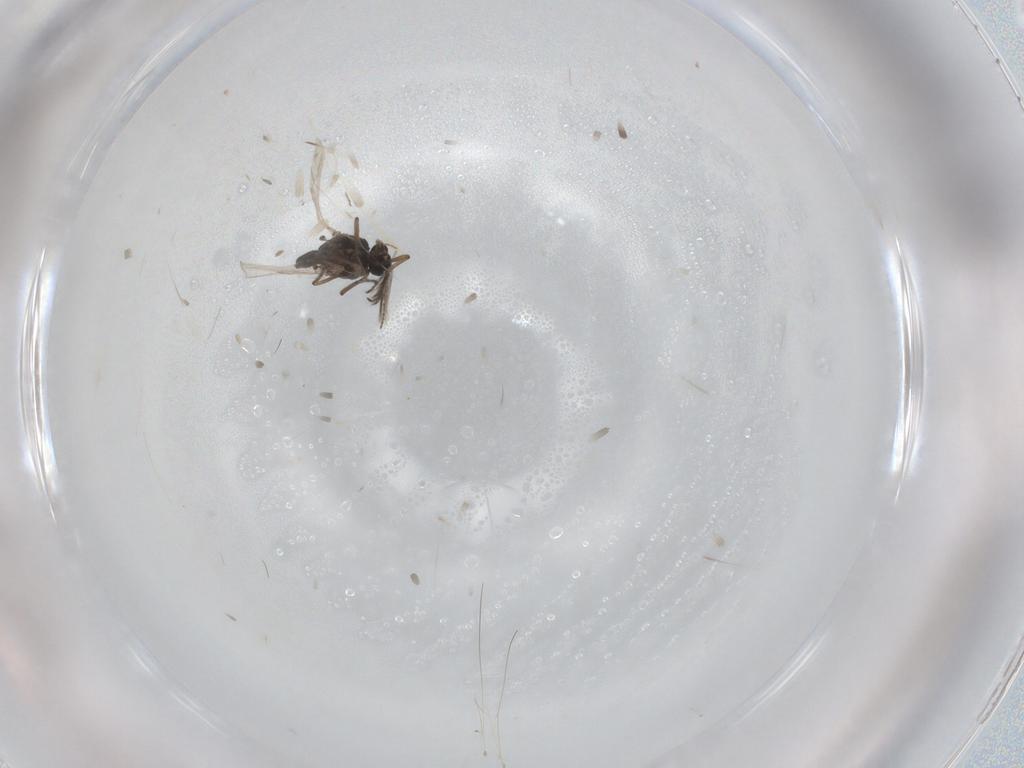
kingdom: Animalia
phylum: Arthropoda
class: Insecta
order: Diptera
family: Ceratopogonidae
